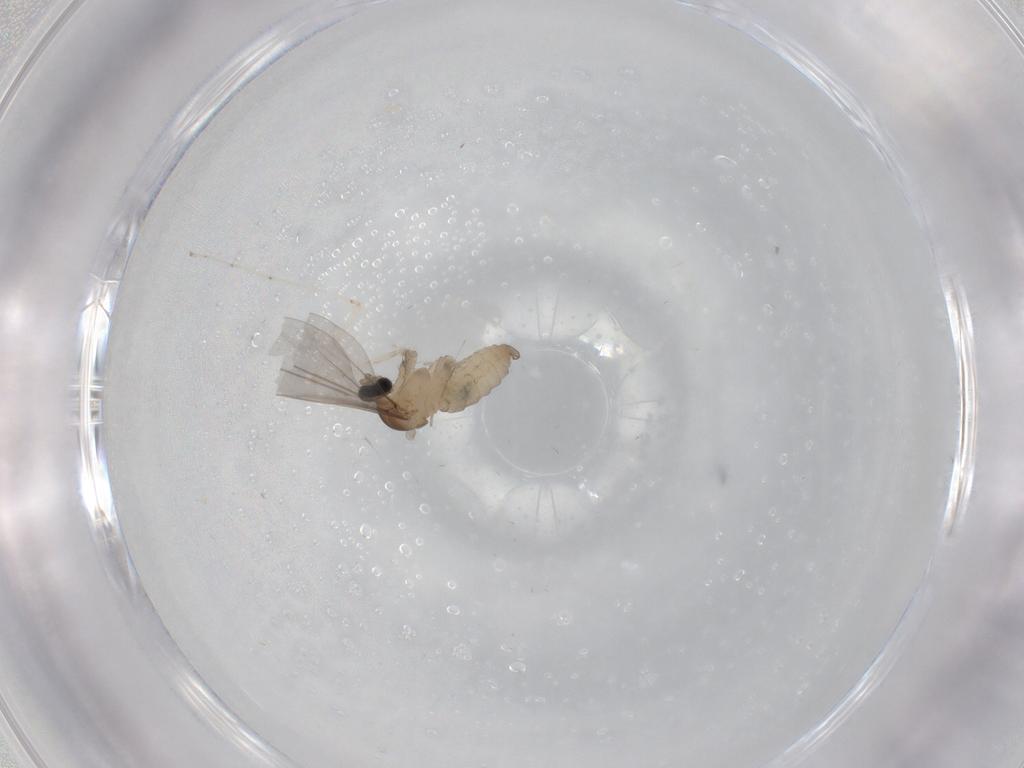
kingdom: Animalia
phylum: Arthropoda
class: Insecta
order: Diptera
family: Cecidomyiidae
